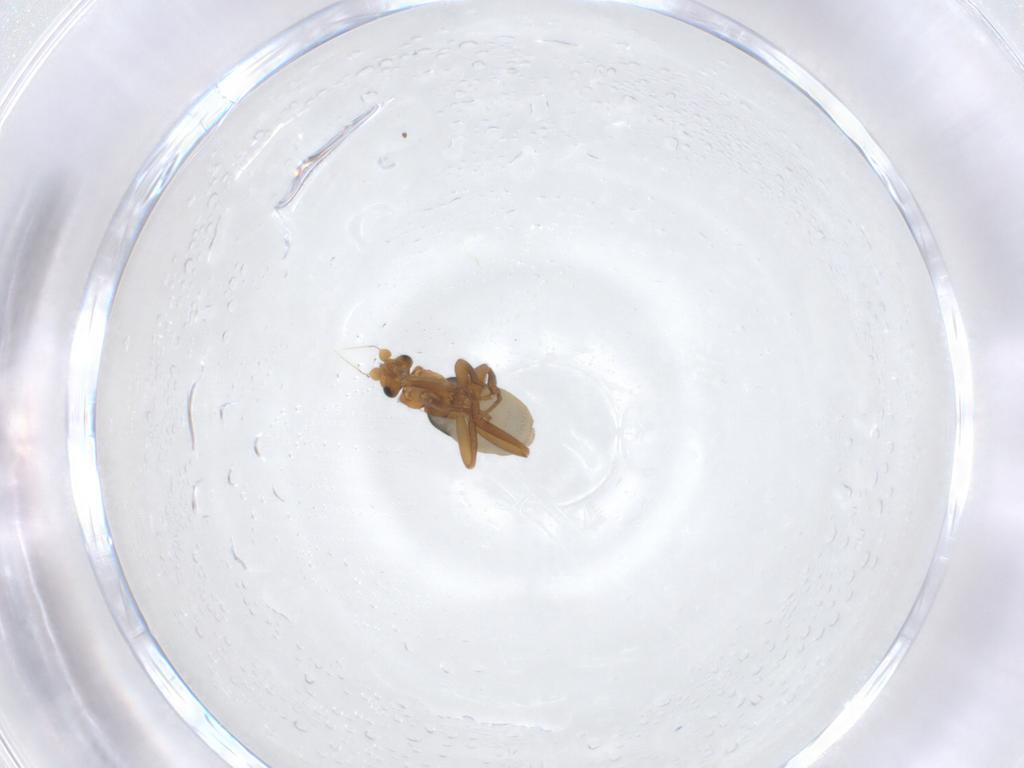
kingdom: Animalia
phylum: Arthropoda
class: Insecta
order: Diptera
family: Phoridae
